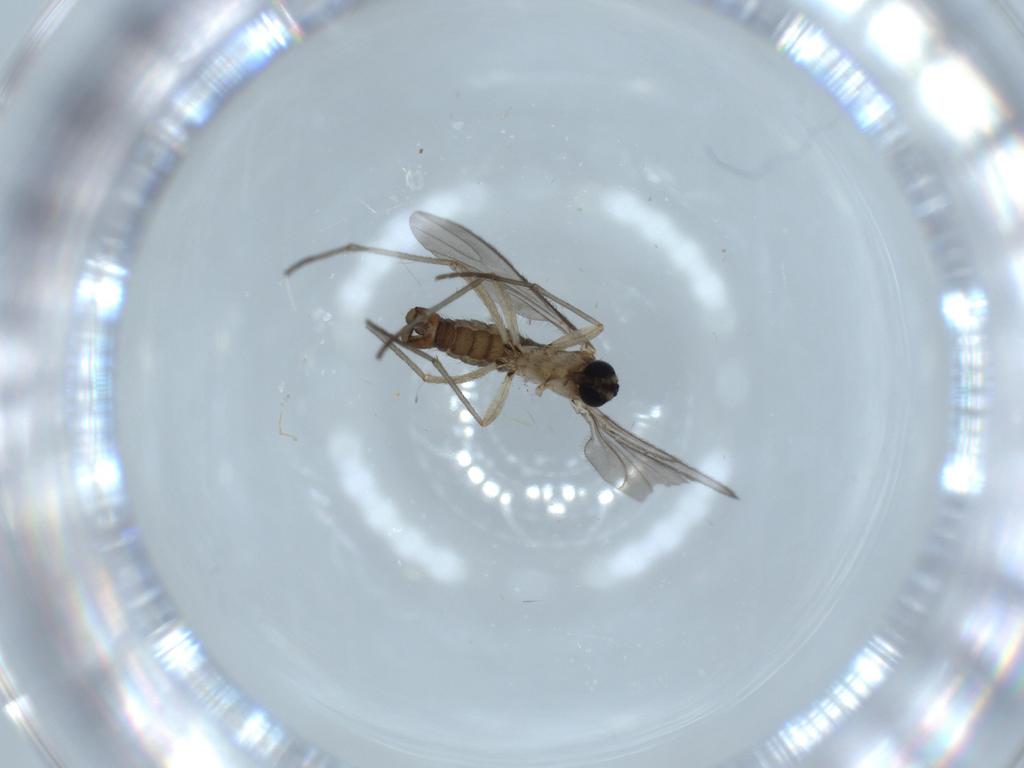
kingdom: Animalia
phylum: Arthropoda
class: Insecta
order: Diptera
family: Sciaridae
